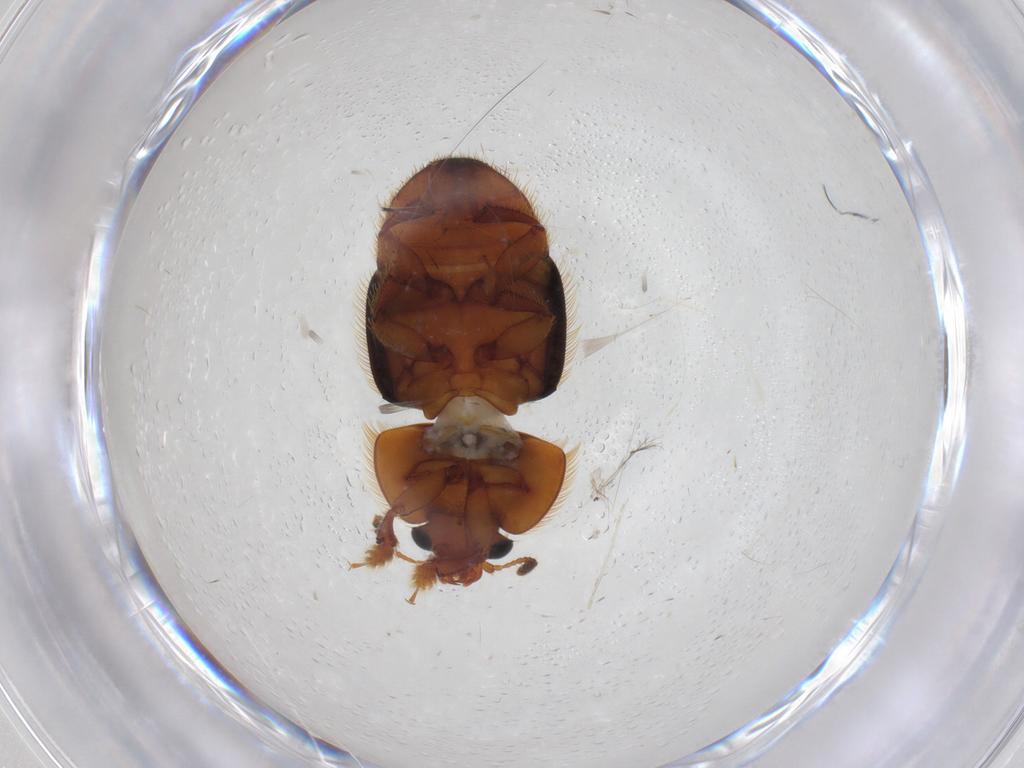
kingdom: Animalia
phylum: Arthropoda
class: Insecta
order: Coleoptera
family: Nitidulidae
